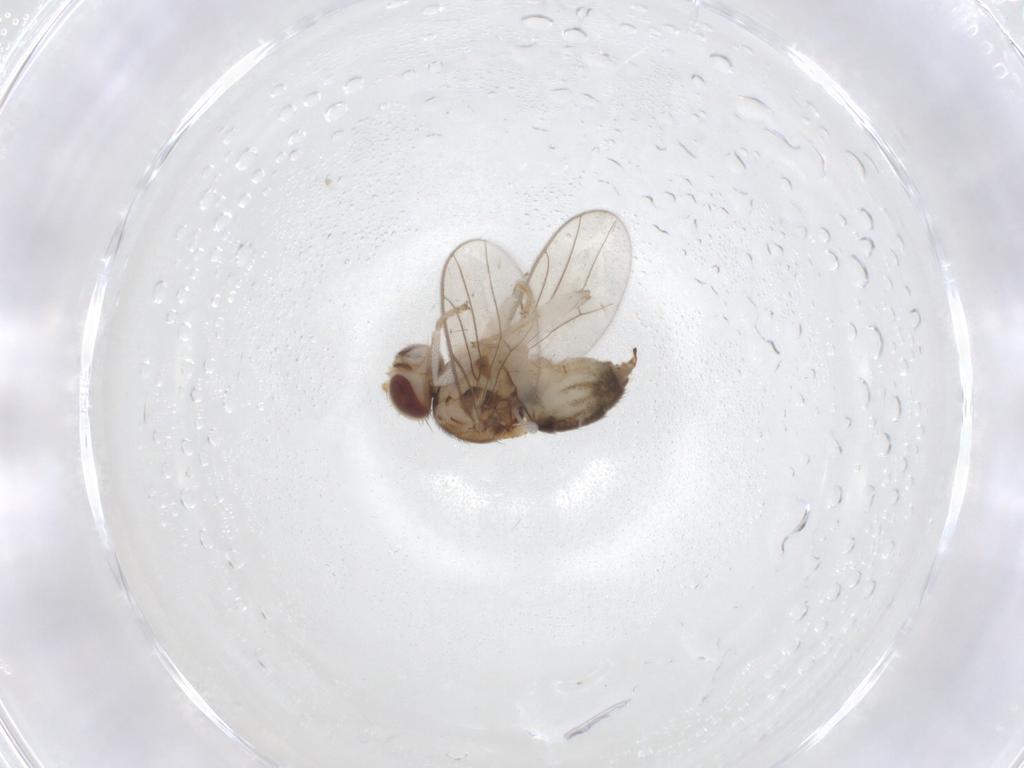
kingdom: Animalia
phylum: Arthropoda
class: Insecta
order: Diptera
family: Chloropidae
